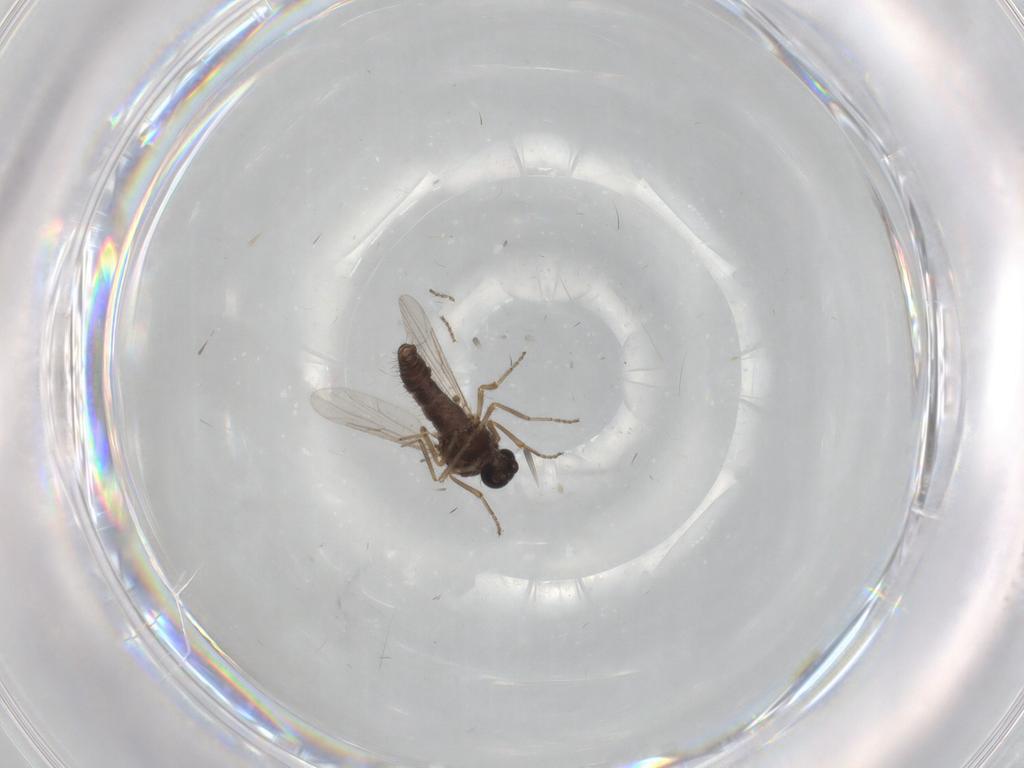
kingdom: Animalia
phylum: Arthropoda
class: Insecta
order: Diptera
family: Ceratopogonidae
